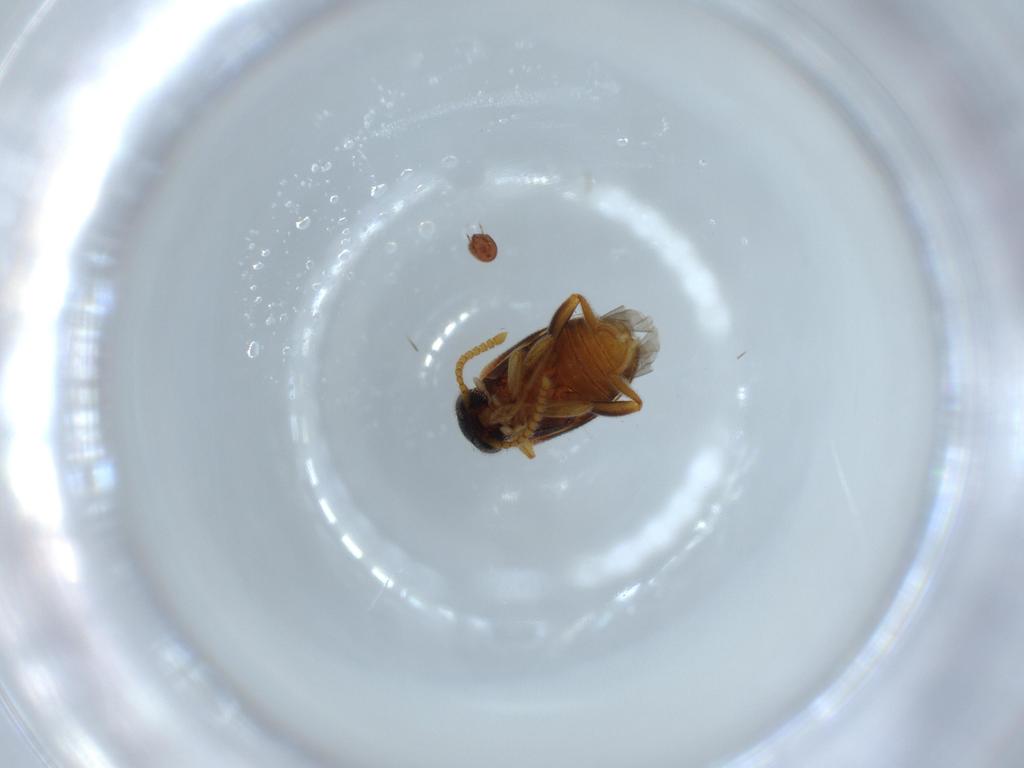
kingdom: Animalia
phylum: Arthropoda
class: Insecta
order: Coleoptera
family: Aderidae
